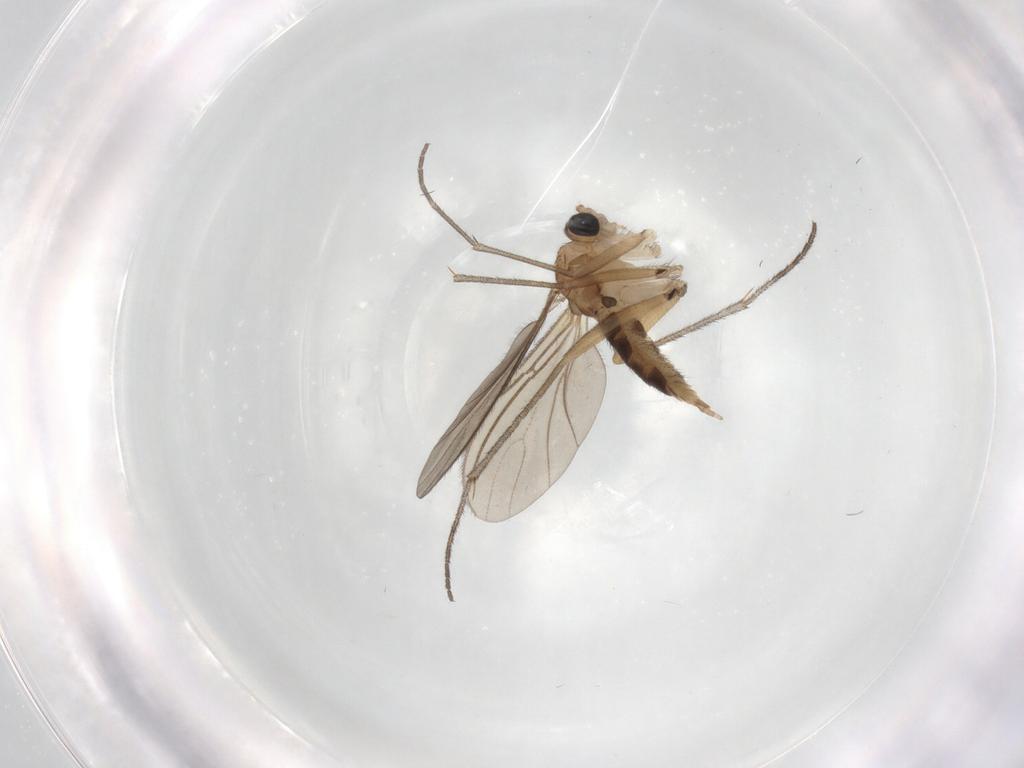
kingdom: Animalia
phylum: Arthropoda
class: Insecta
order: Diptera
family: Sciaridae
